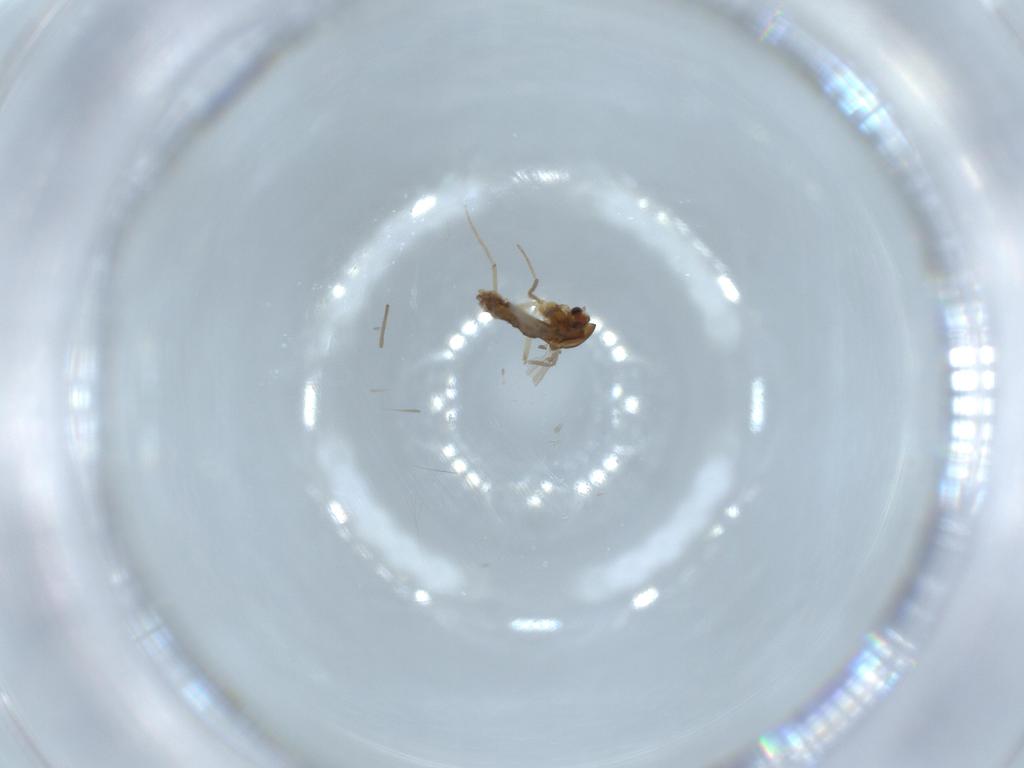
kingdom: Animalia
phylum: Arthropoda
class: Insecta
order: Diptera
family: Chironomidae
